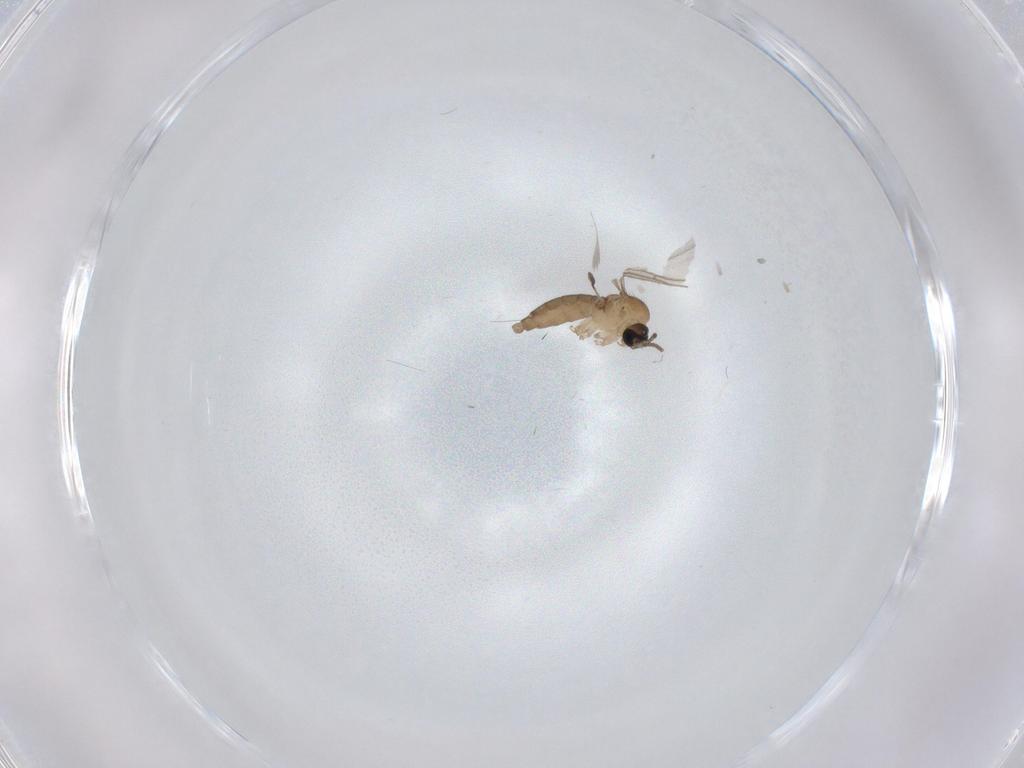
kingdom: Animalia
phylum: Arthropoda
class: Insecta
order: Diptera
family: Sciaridae
